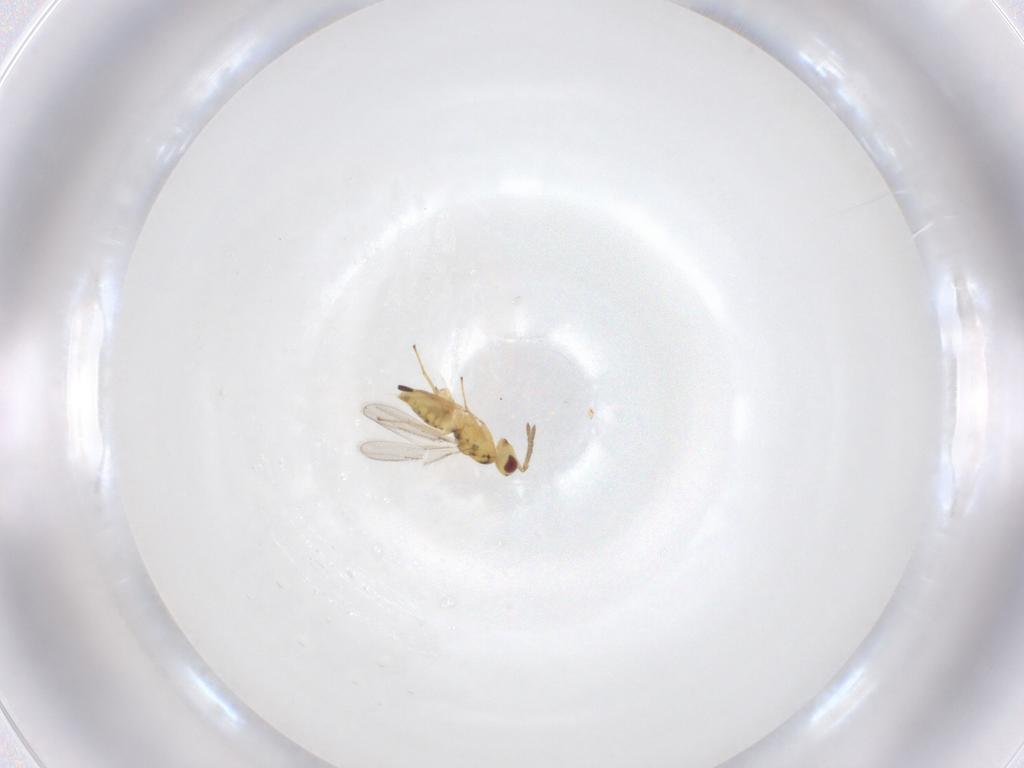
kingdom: Animalia
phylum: Arthropoda
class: Insecta
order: Hymenoptera
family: Eulophidae
